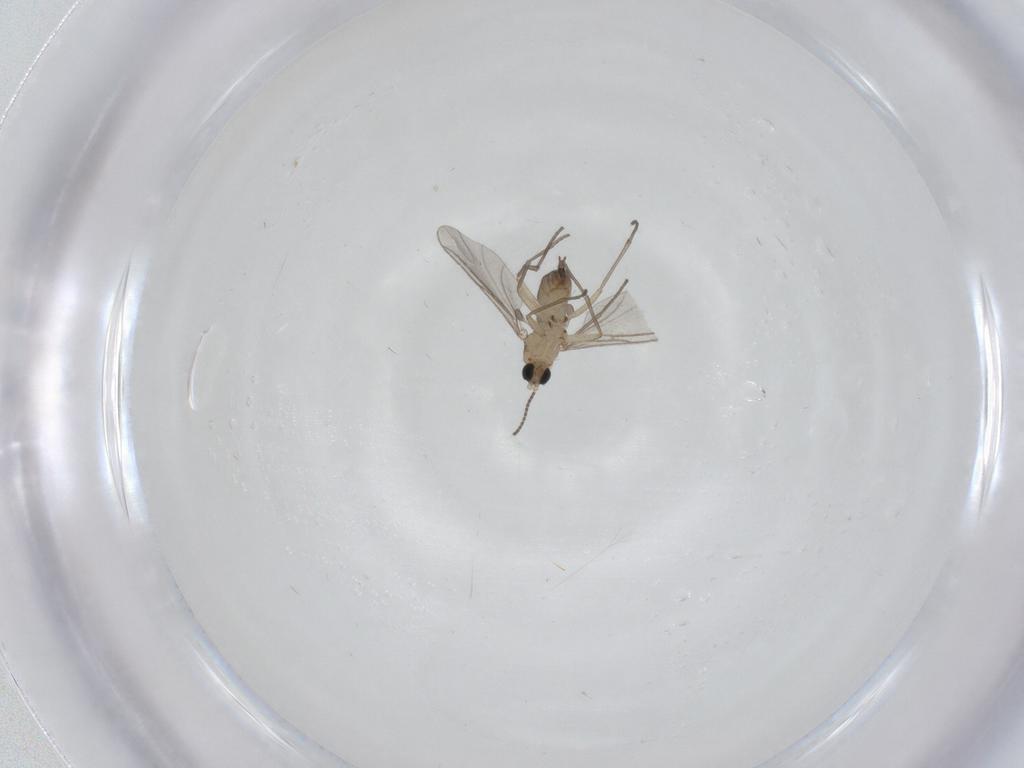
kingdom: Animalia
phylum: Arthropoda
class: Insecta
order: Diptera
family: Sciaridae
